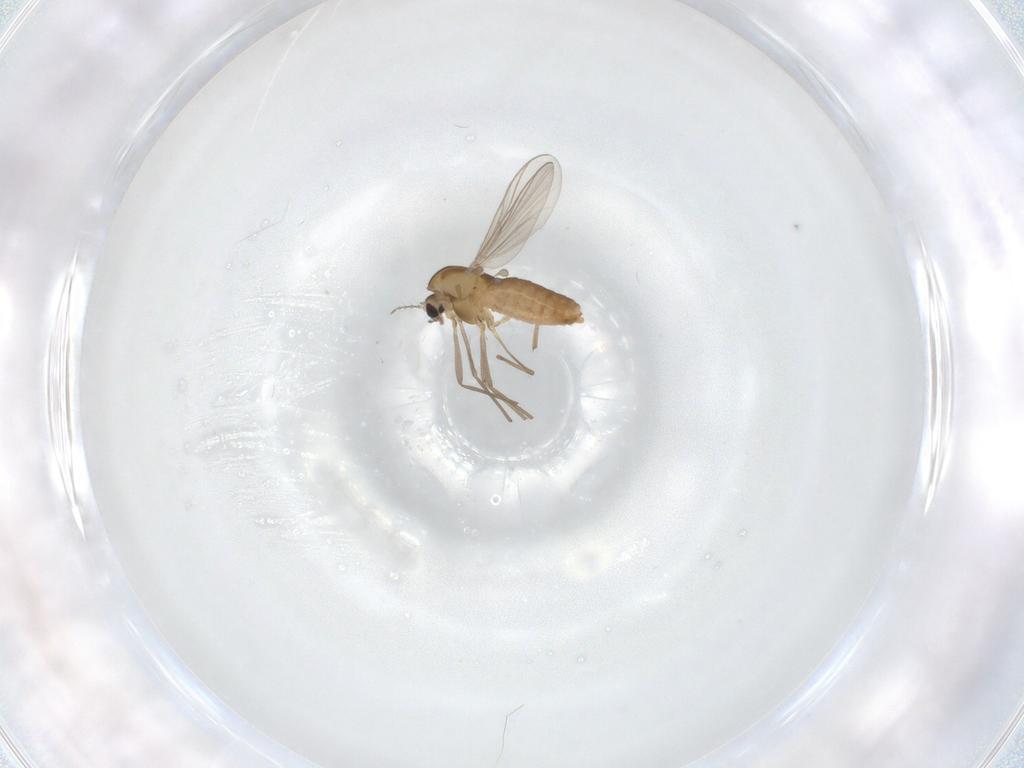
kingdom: Animalia
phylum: Arthropoda
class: Insecta
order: Diptera
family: Chironomidae
